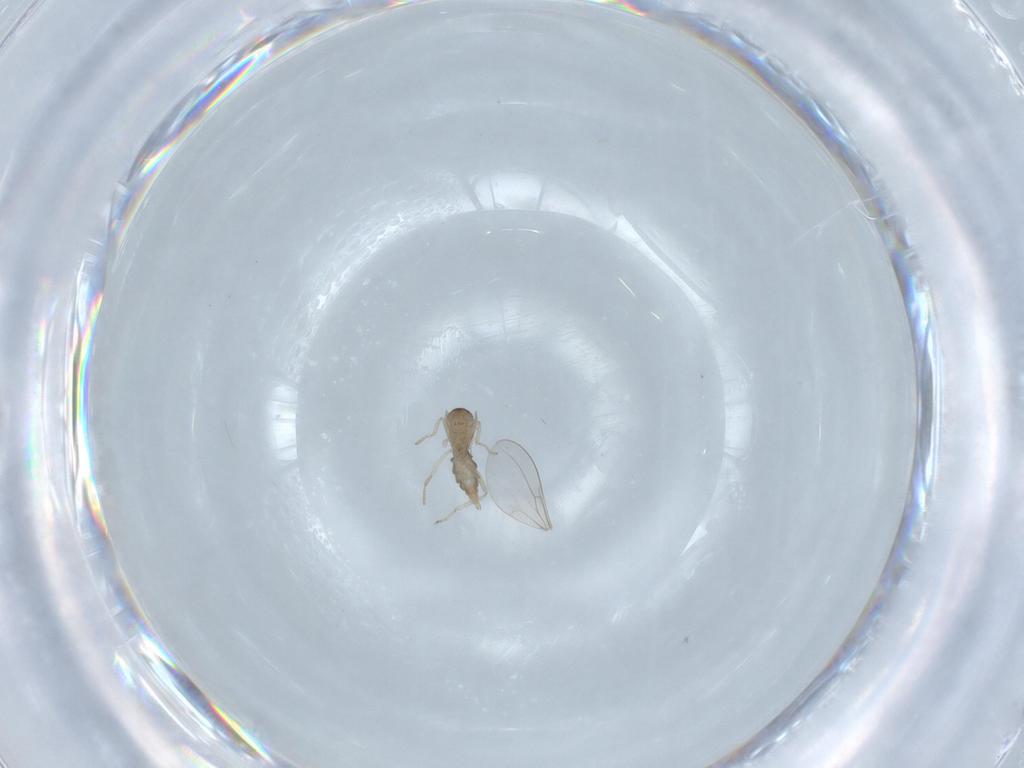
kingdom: Animalia
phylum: Arthropoda
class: Insecta
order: Diptera
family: Cecidomyiidae
